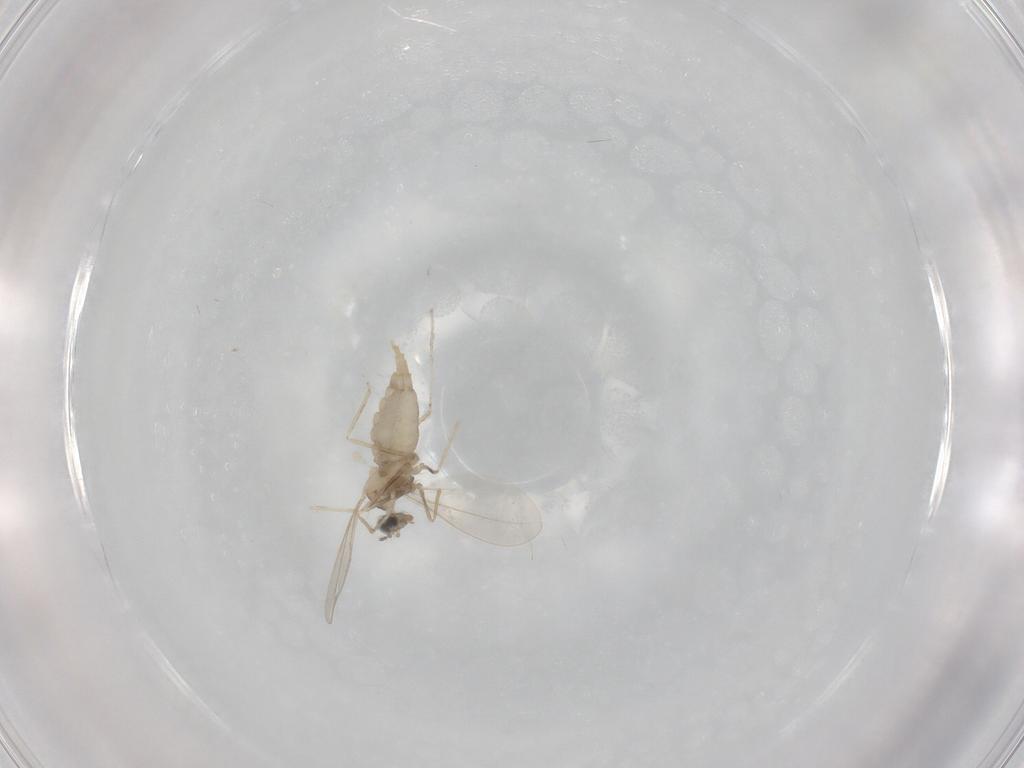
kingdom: Animalia
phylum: Arthropoda
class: Insecta
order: Diptera
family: Cecidomyiidae
